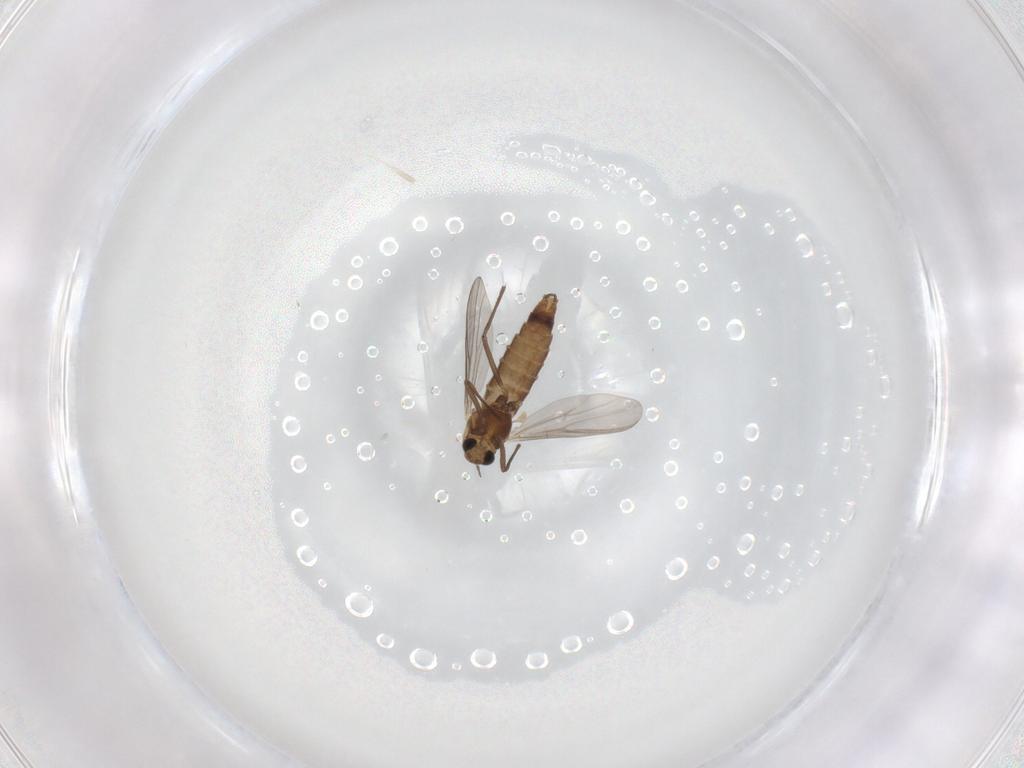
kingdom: Animalia
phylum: Arthropoda
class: Insecta
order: Diptera
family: Chironomidae
